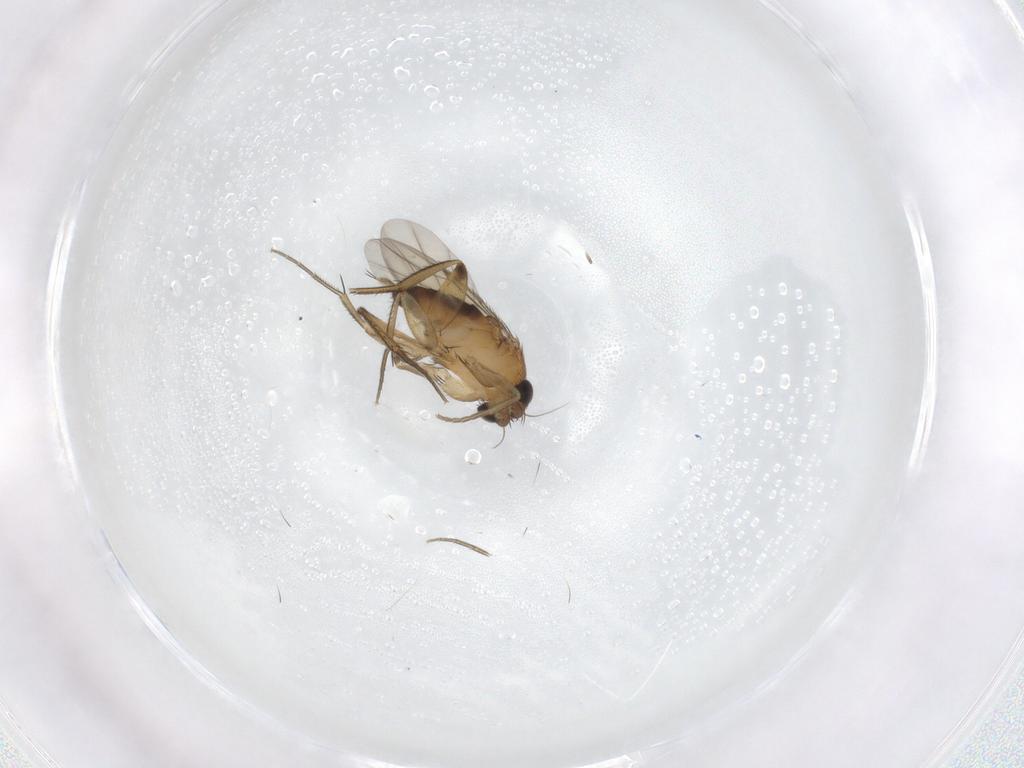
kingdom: Animalia
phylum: Arthropoda
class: Insecta
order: Diptera
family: Phoridae
